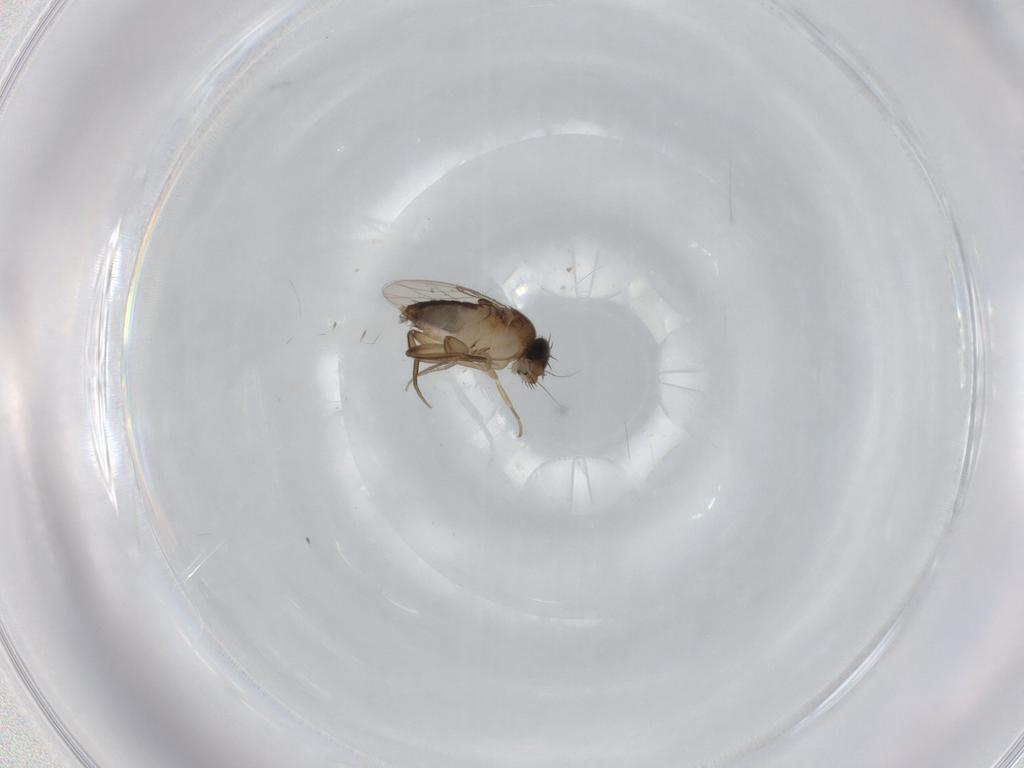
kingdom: Animalia
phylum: Arthropoda
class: Insecta
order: Diptera
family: Phoridae
